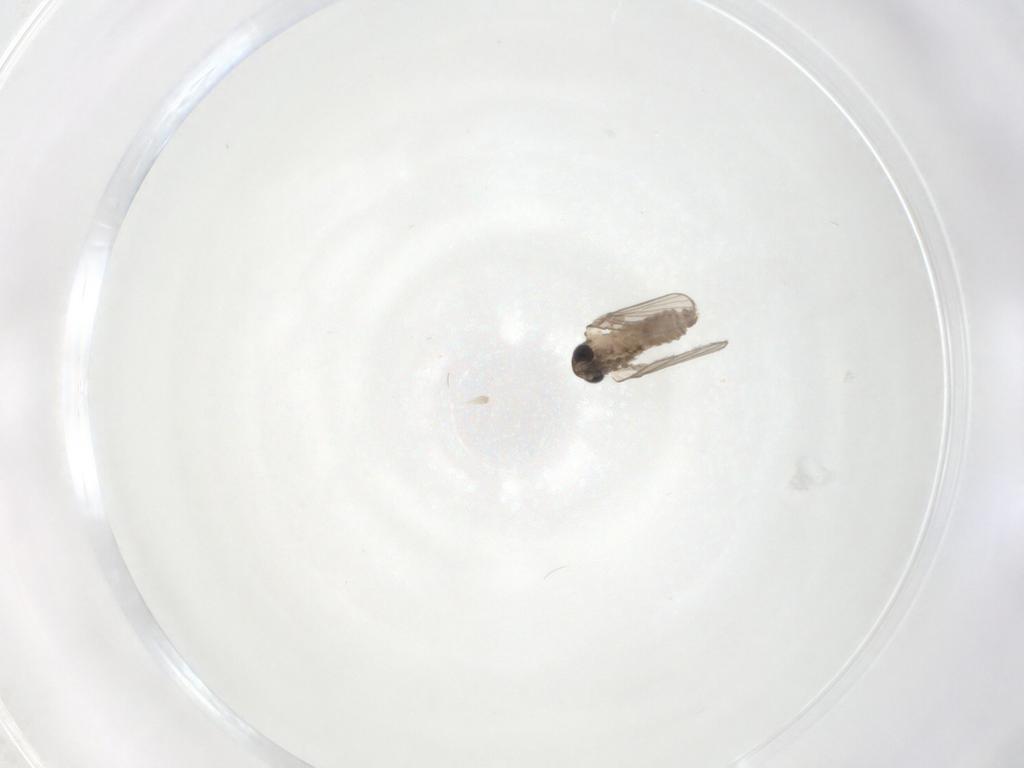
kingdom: Animalia
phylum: Arthropoda
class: Insecta
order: Diptera
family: Psychodidae
